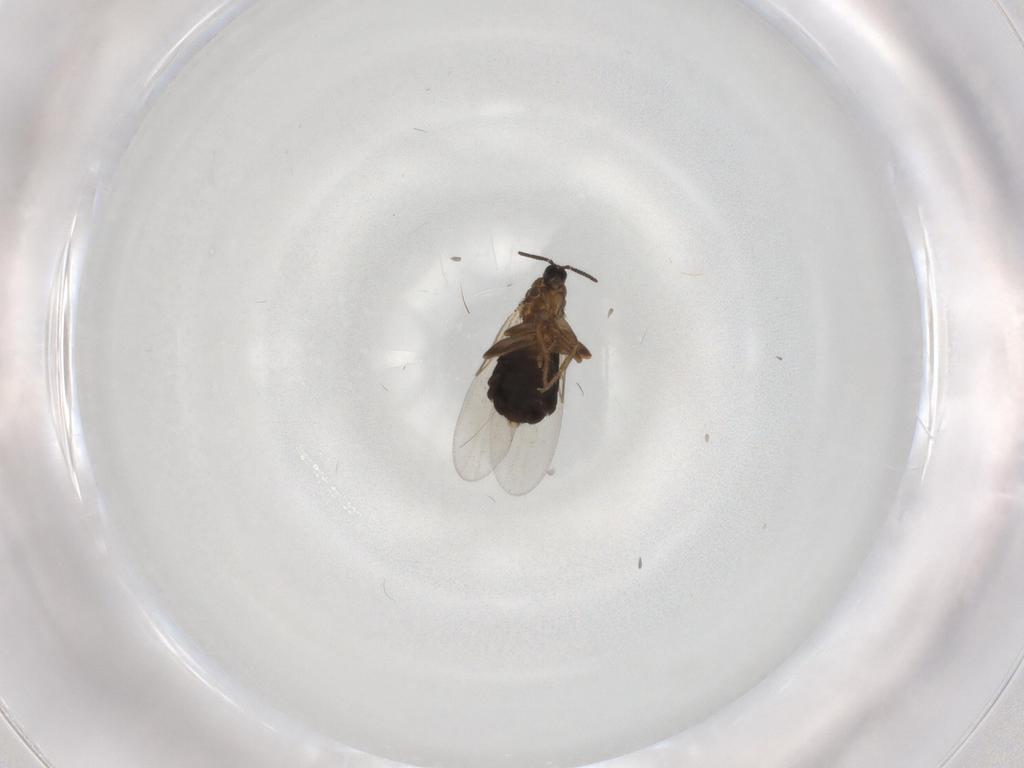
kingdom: Animalia
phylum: Arthropoda
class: Insecta
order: Diptera
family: Scatopsidae
